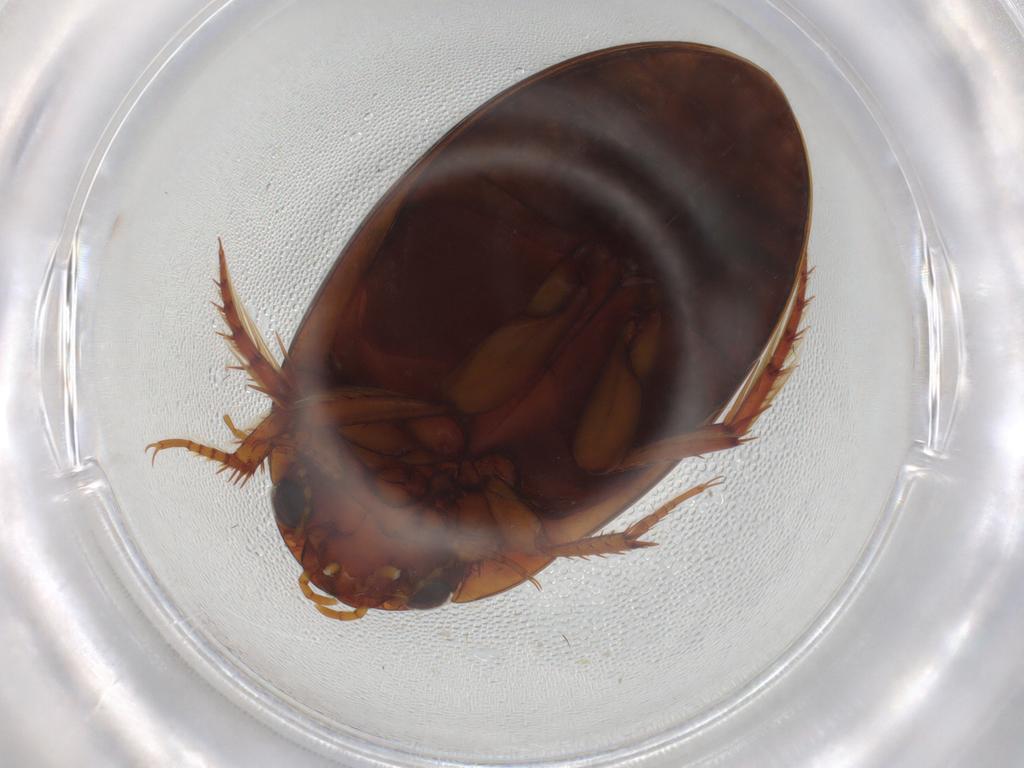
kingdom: Animalia
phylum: Arthropoda
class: Insecta
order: Coleoptera
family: Dytiscidae
